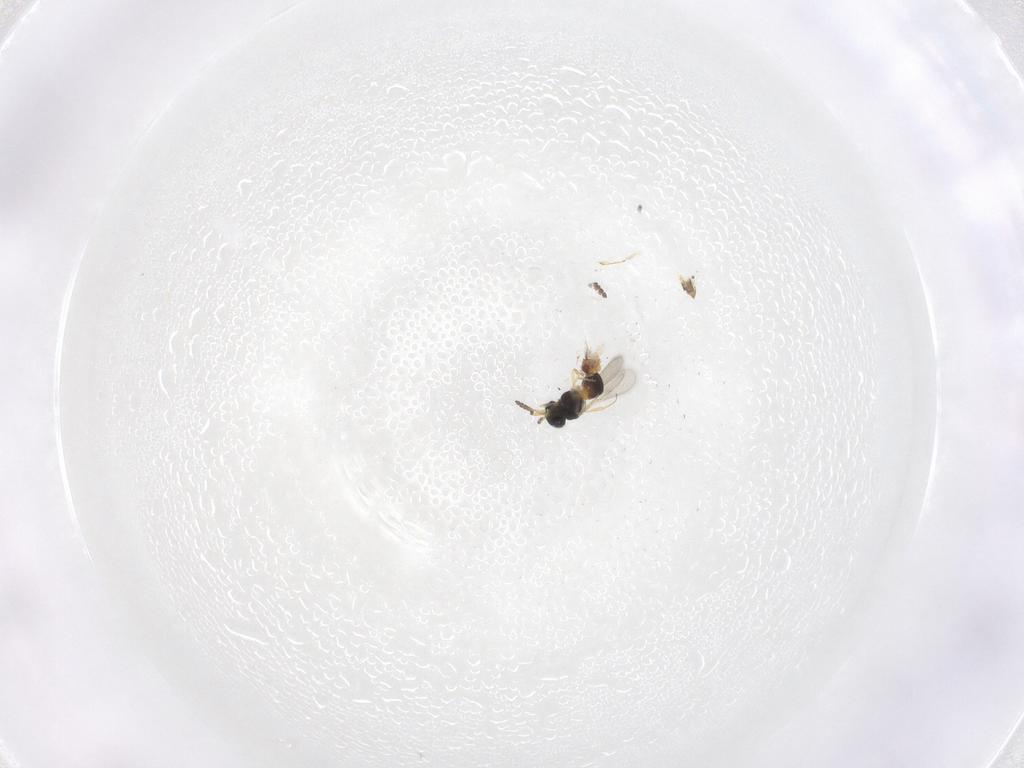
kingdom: Animalia
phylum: Arthropoda
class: Insecta
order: Hymenoptera
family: Scelionidae
